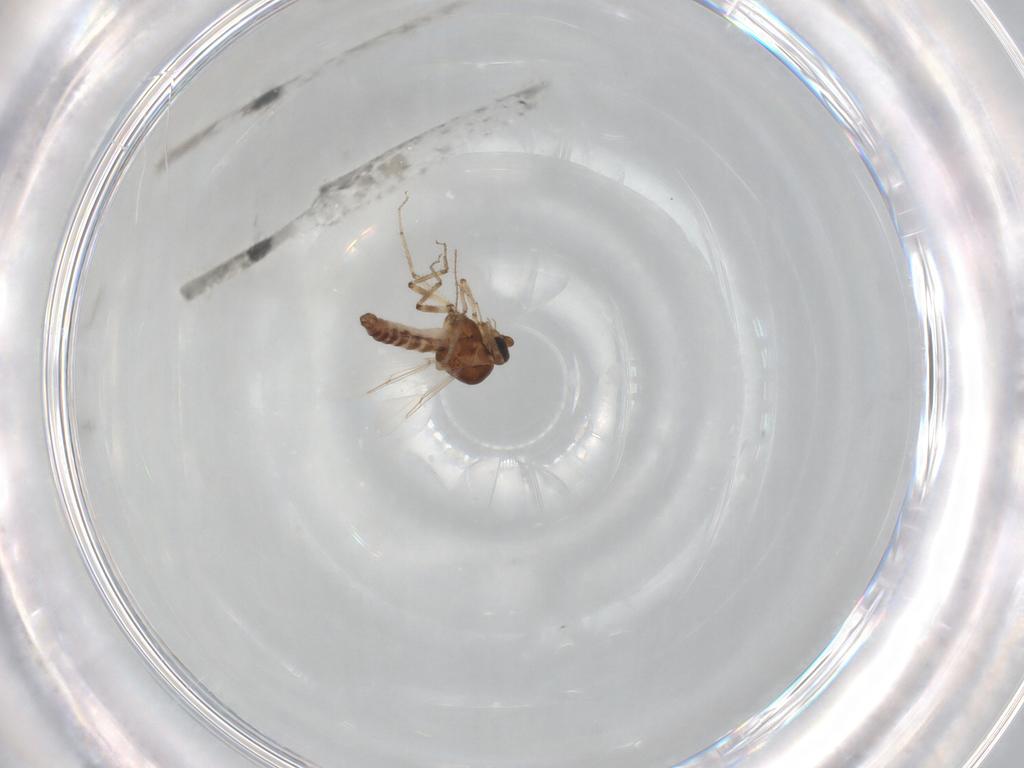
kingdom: Animalia
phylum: Arthropoda
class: Insecta
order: Diptera
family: Ceratopogonidae
